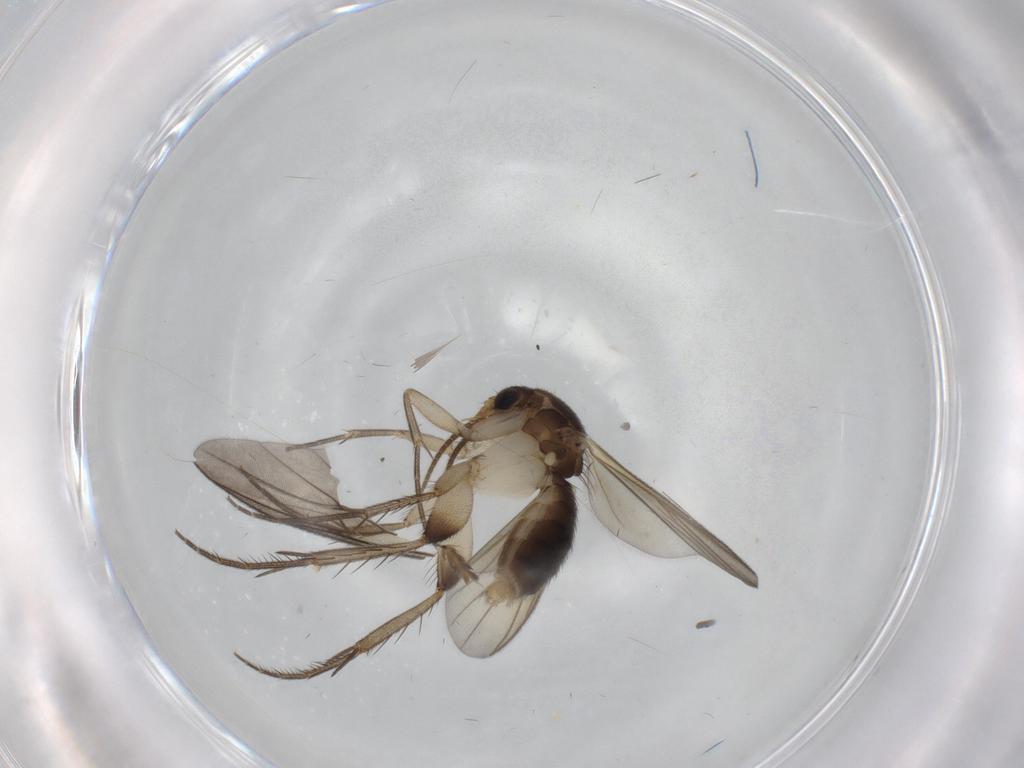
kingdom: Animalia
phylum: Arthropoda
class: Insecta
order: Diptera
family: Mycetophilidae
